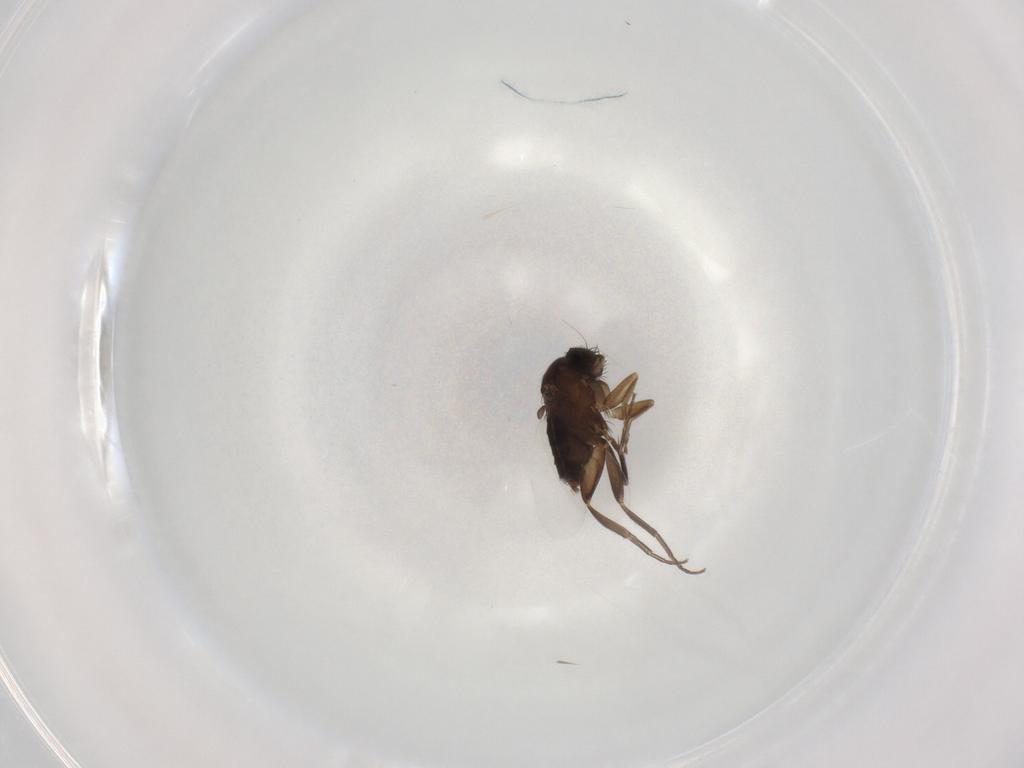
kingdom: Animalia
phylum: Arthropoda
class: Insecta
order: Diptera
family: Phoridae
